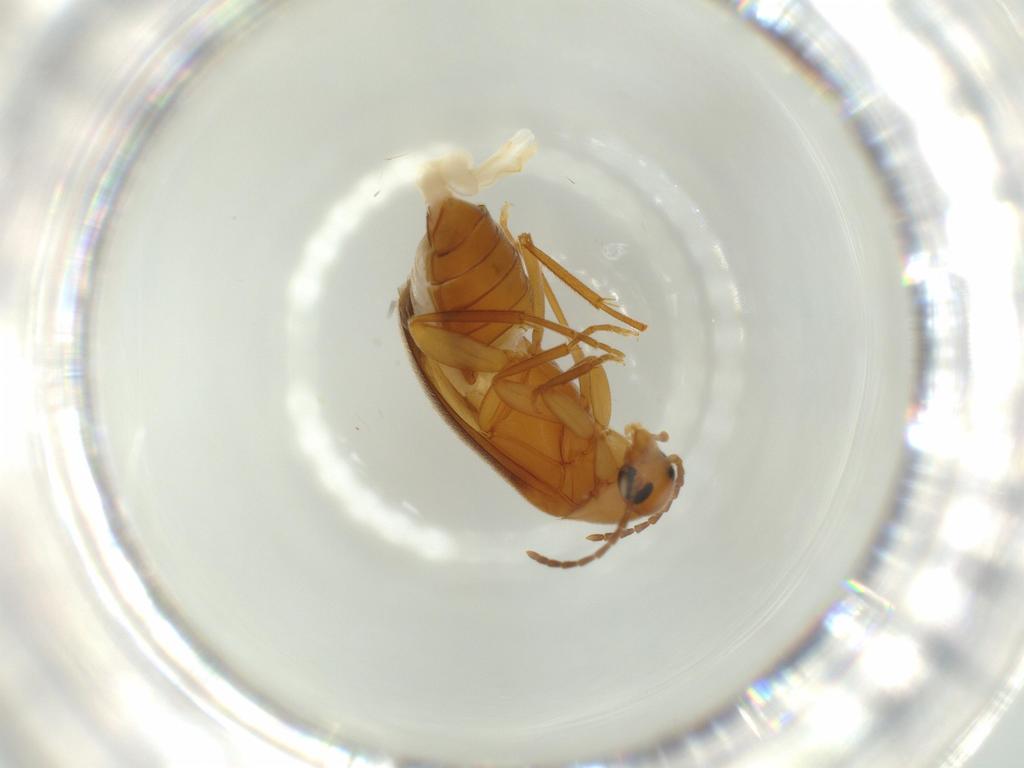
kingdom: Animalia
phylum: Arthropoda
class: Insecta
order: Coleoptera
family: Scraptiidae
